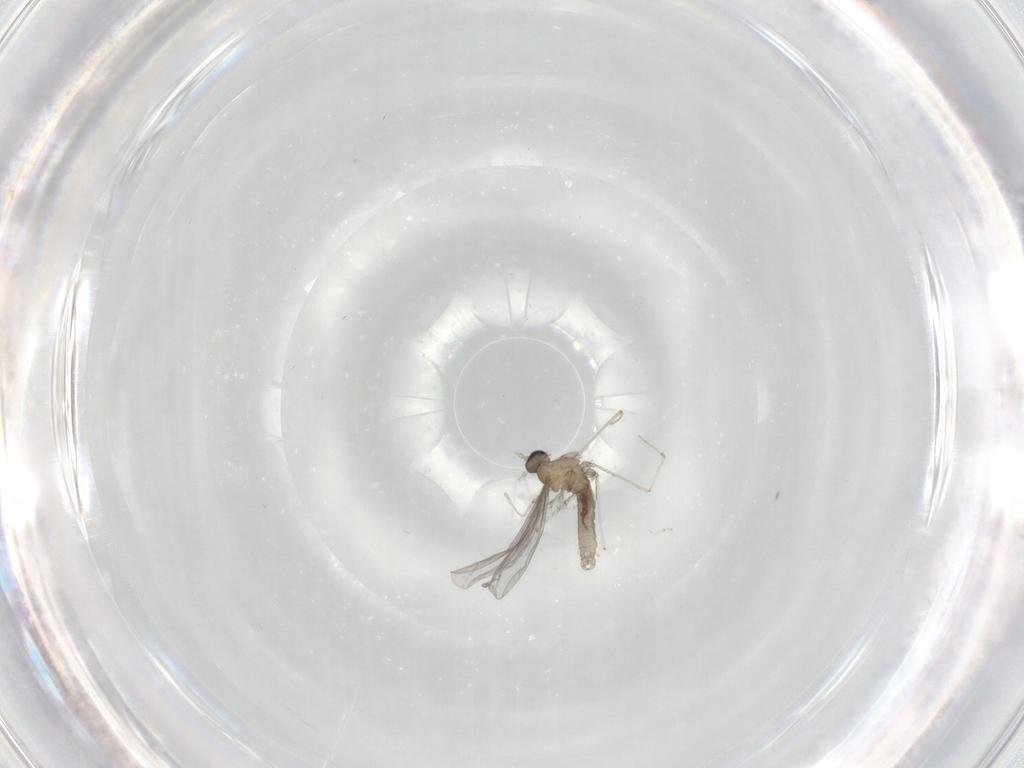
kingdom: Animalia
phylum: Arthropoda
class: Insecta
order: Diptera
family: Cecidomyiidae
